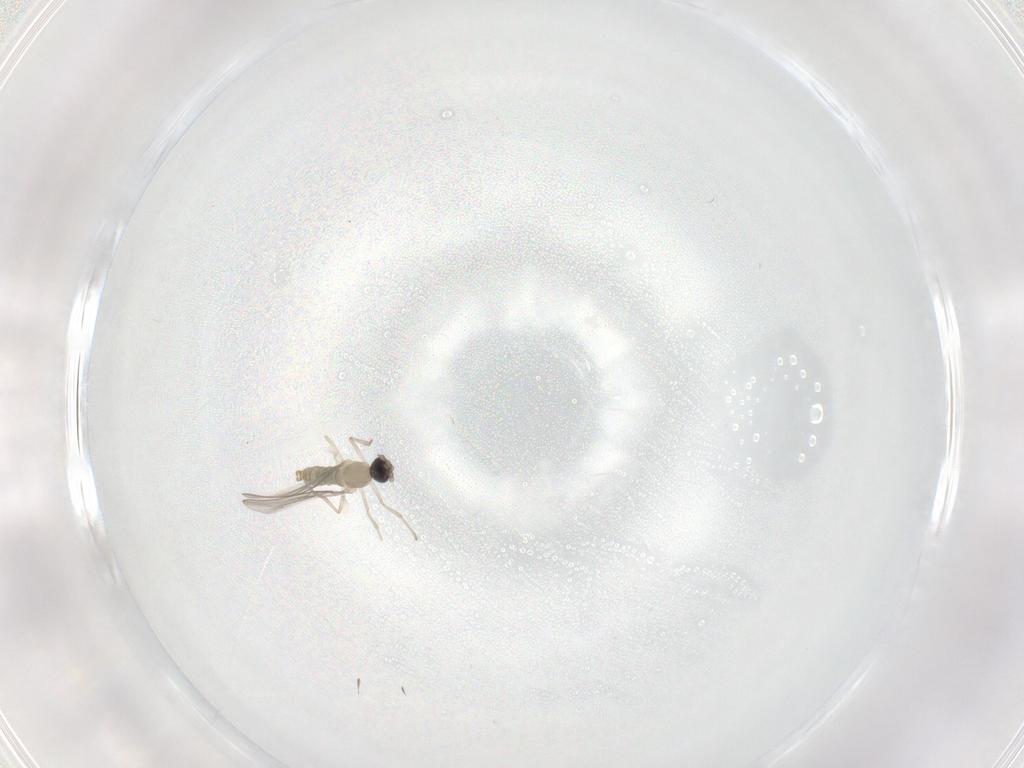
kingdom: Animalia
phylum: Arthropoda
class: Insecta
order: Diptera
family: Cecidomyiidae
